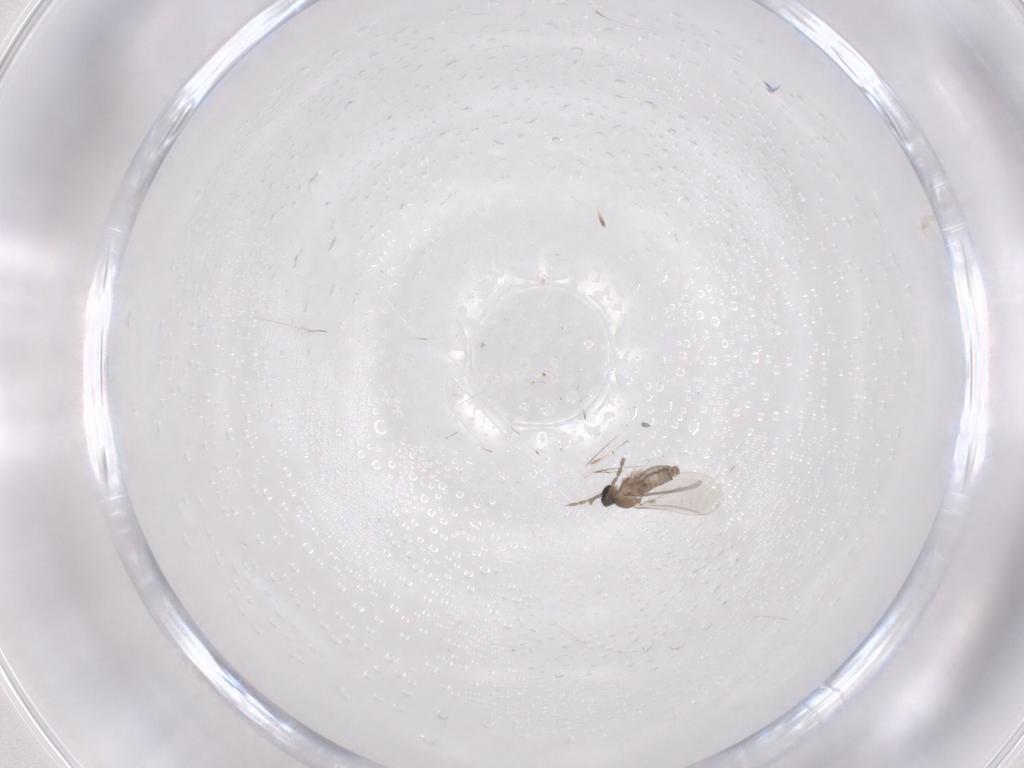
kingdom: Animalia
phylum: Arthropoda
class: Insecta
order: Diptera
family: Cecidomyiidae
